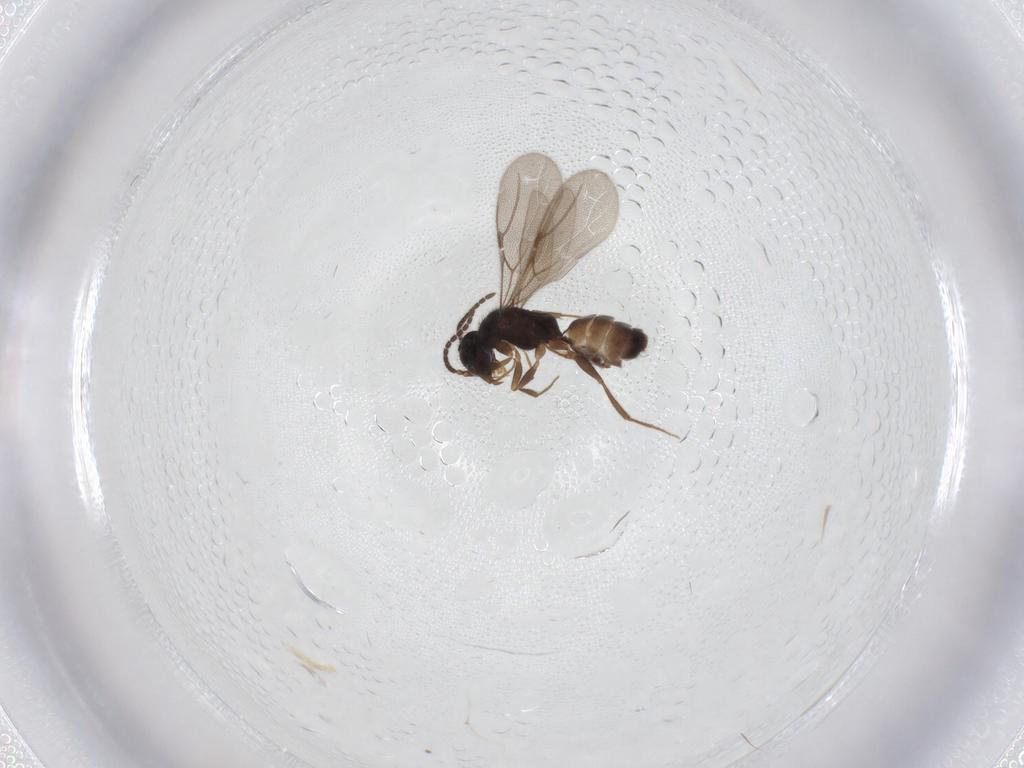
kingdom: Animalia
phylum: Arthropoda
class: Insecta
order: Hymenoptera
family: Bethylidae
